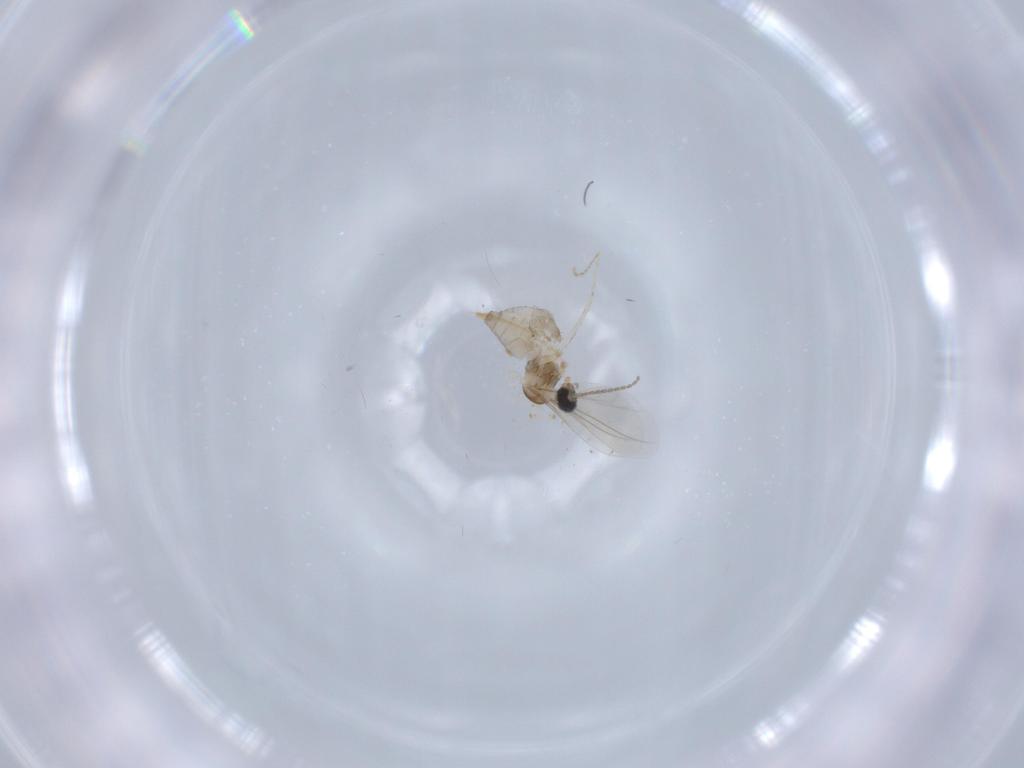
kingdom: Animalia
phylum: Arthropoda
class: Insecta
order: Diptera
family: Cecidomyiidae
